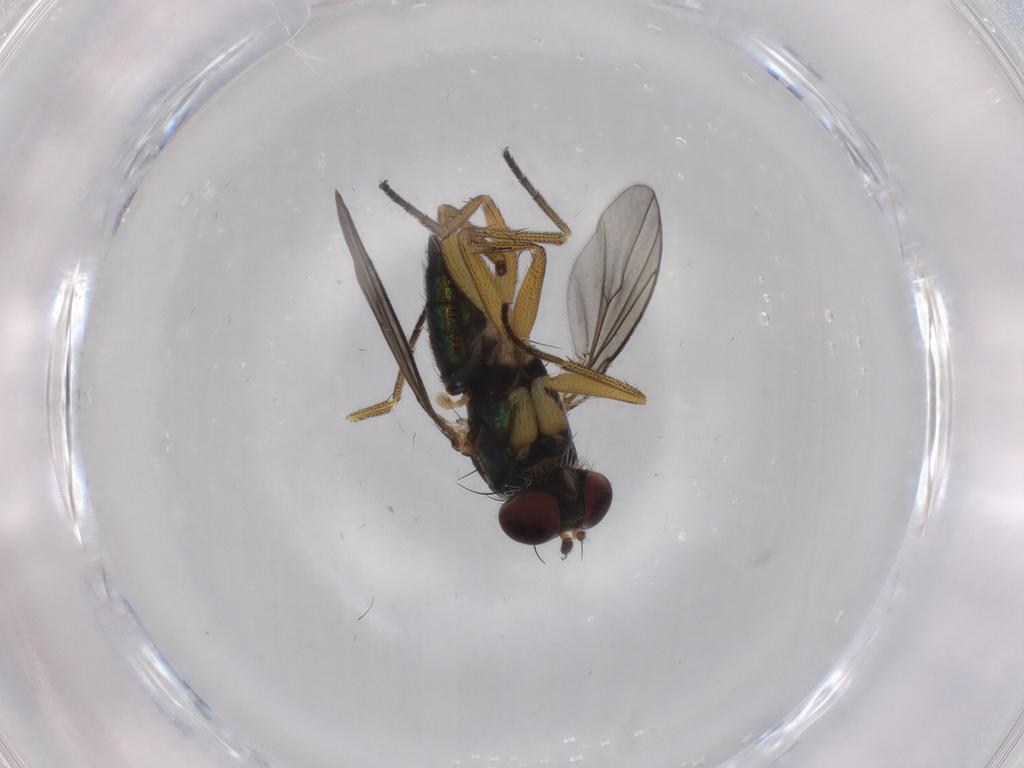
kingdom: Animalia
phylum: Arthropoda
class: Insecta
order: Diptera
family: Dolichopodidae
